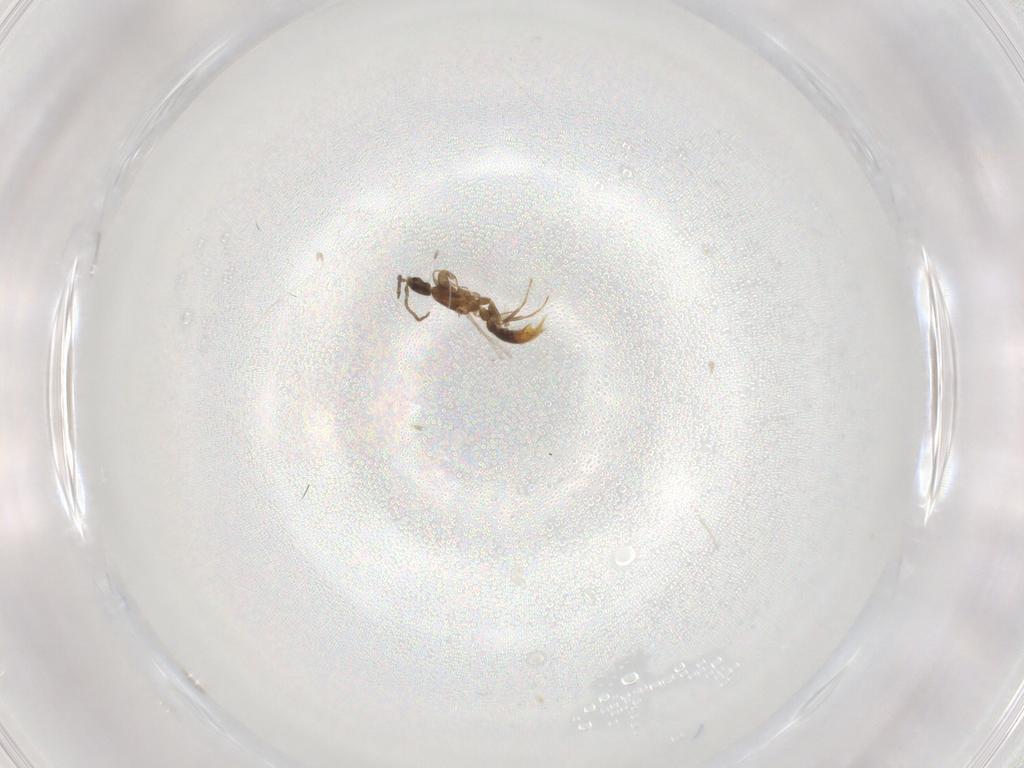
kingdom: Animalia
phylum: Arthropoda
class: Insecta
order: Hymenoptera
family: Formicidae
